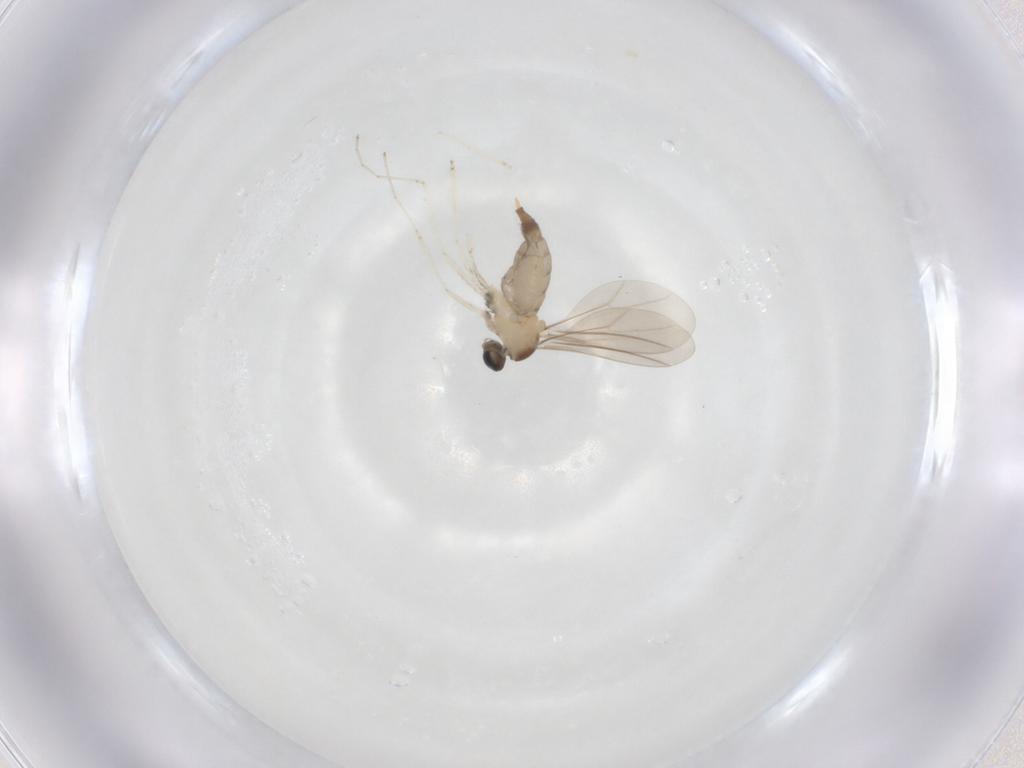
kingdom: Animalia
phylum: Arthropoda
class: Insecta
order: Diptera
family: Cecidomyiidae
